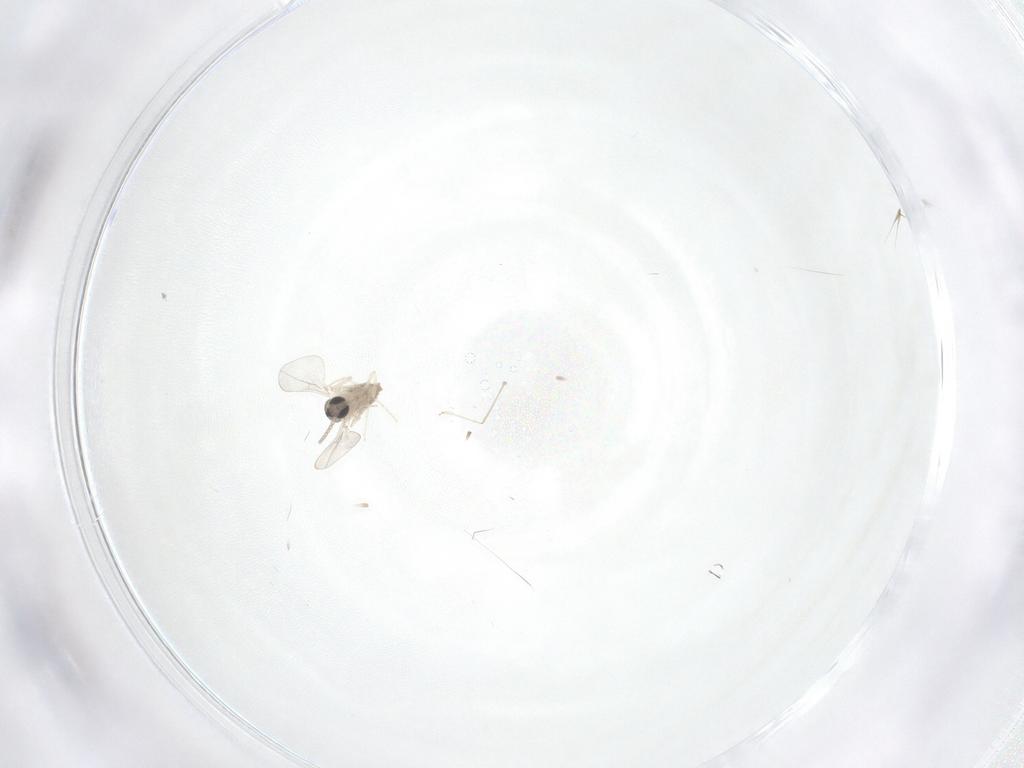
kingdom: Animalia
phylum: Arthropoda
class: Insecta
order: Diptera
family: Cecidomyiidae
